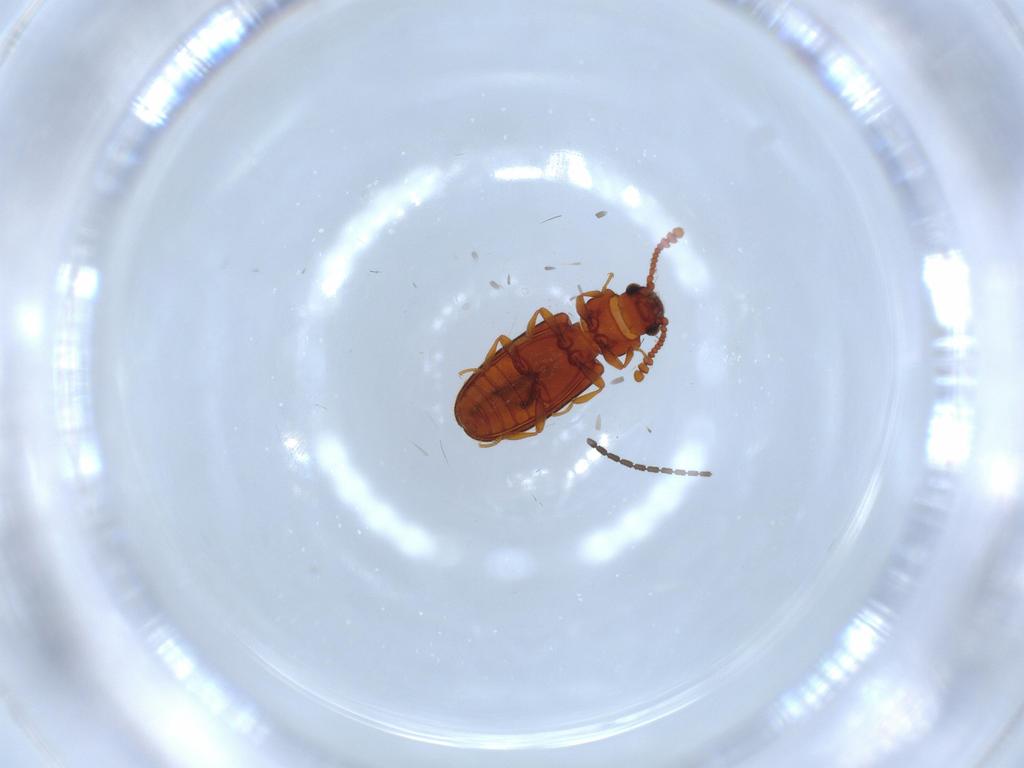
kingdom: Animalia
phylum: Arthropoda
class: Insecta
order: Coleoptera
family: Erotylidae
